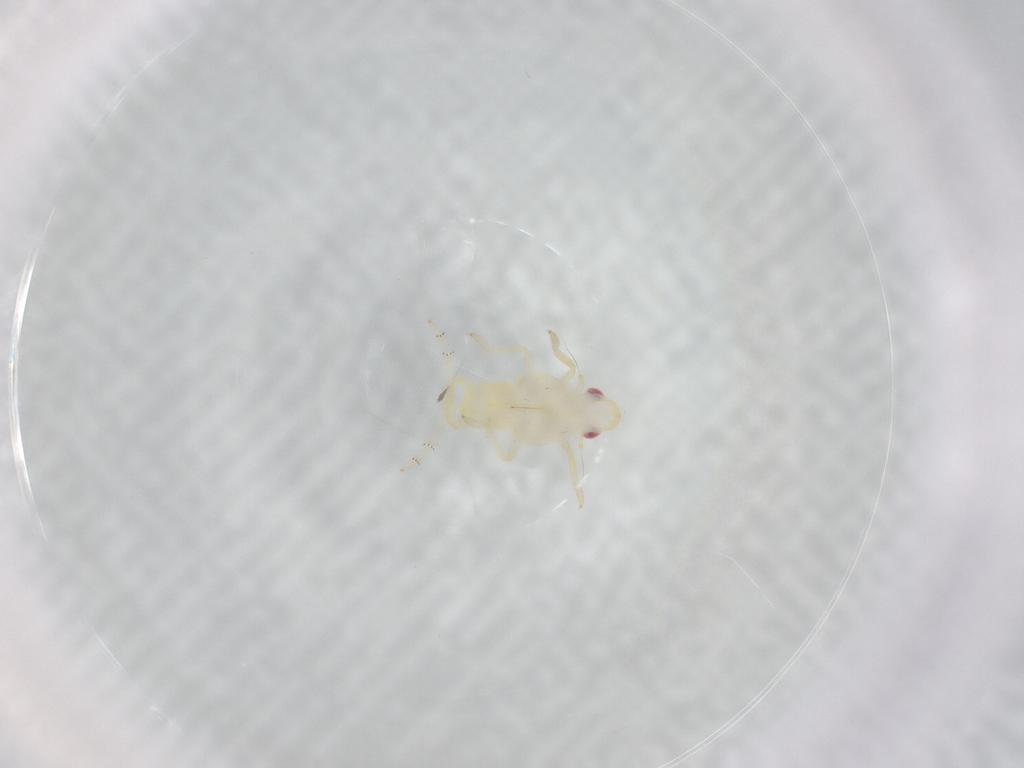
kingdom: Animalia
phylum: Arthropoda
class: Insecta
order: Hemiptera
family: Tropiduchidae
